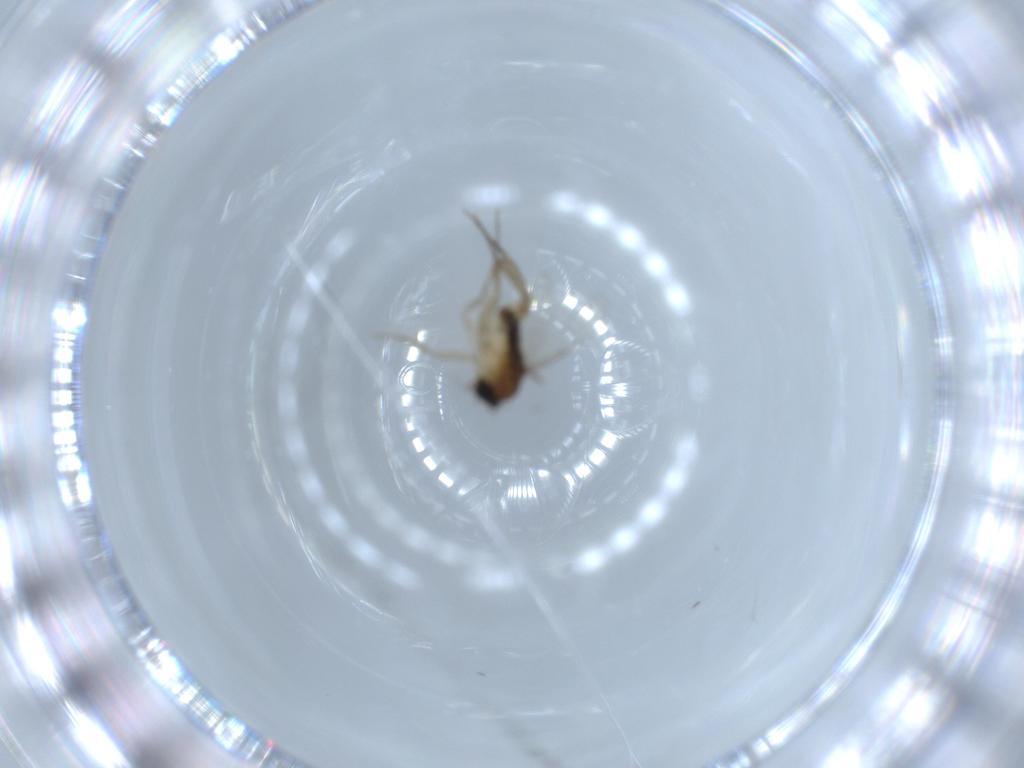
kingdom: Animalia
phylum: Arthropoda
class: Insecta
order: Diptera
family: Phoridae
